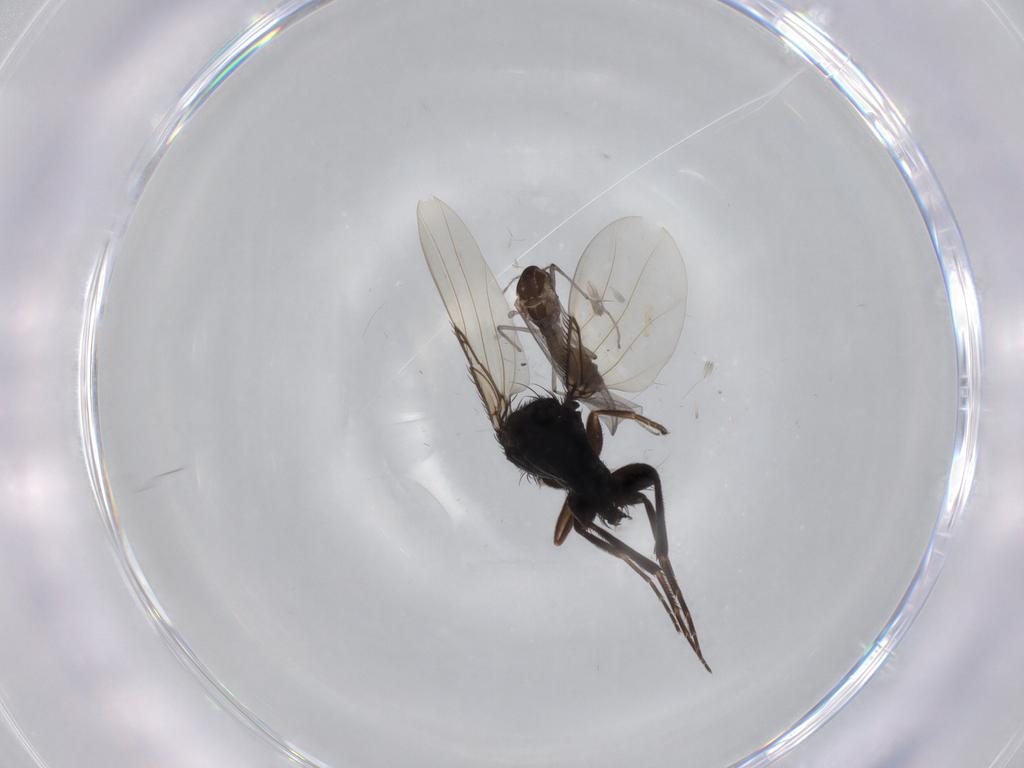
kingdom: Animalia
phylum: Arthropoda
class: Insecta
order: Diptera
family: Phoridae
